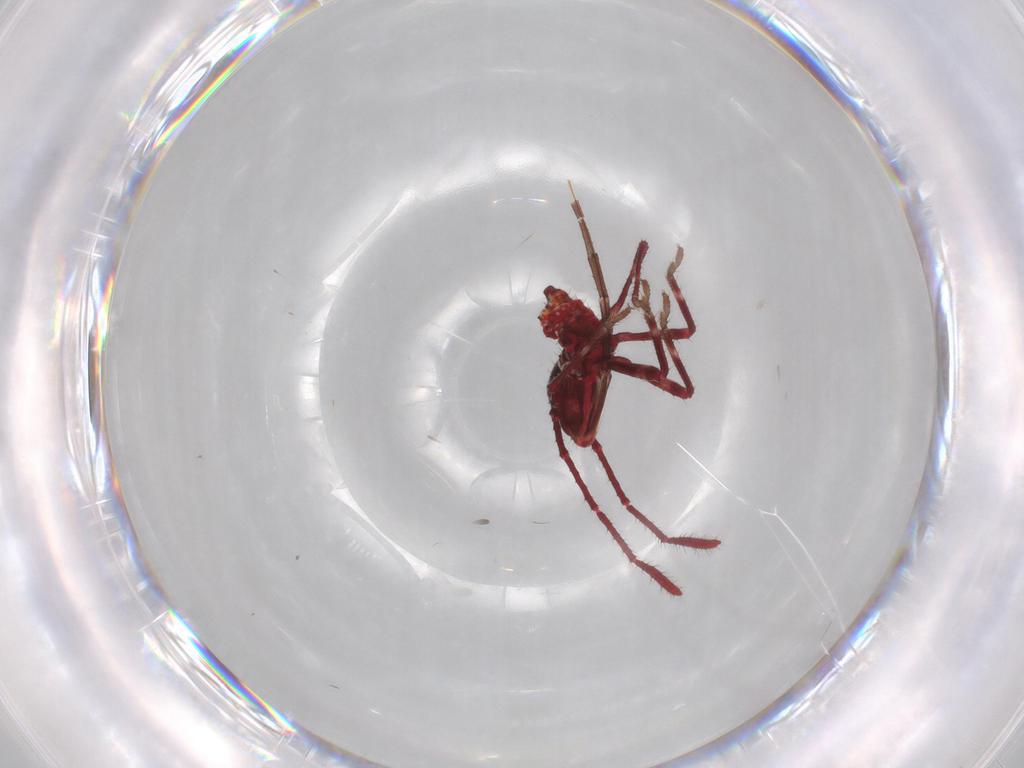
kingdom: Animalia
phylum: Arthropoda
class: Insecta
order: Hemiptera
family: Coreidae
